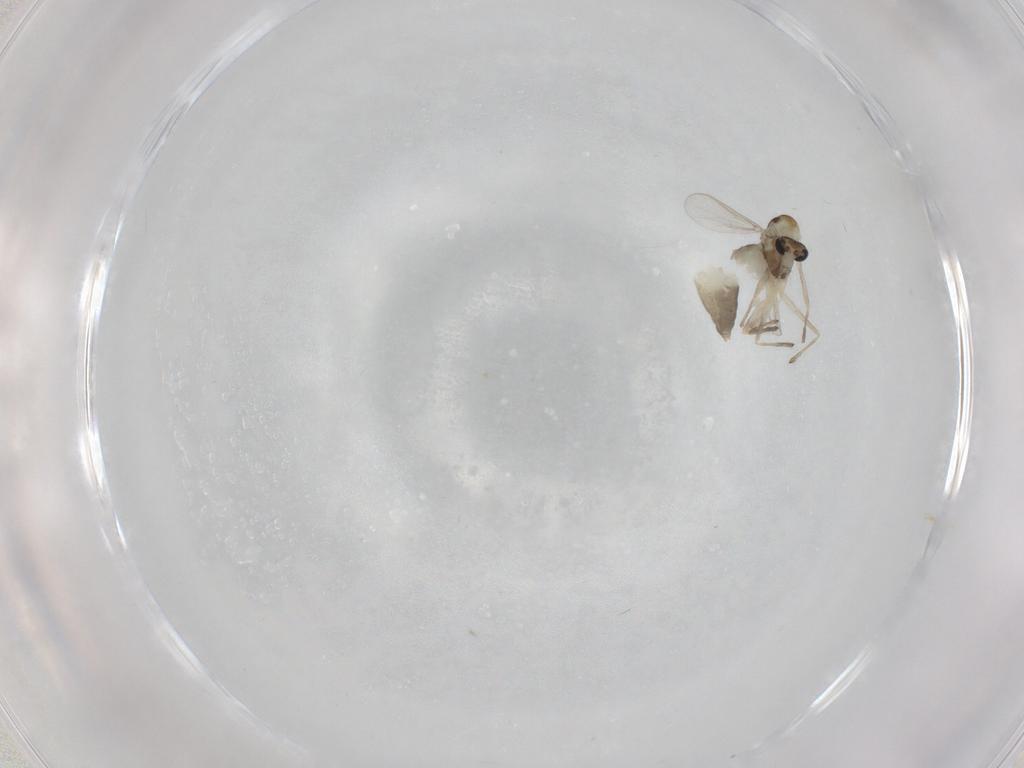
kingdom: Animalia
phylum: Arthropoda
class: Insecta
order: Diptera
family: Chironomidae
